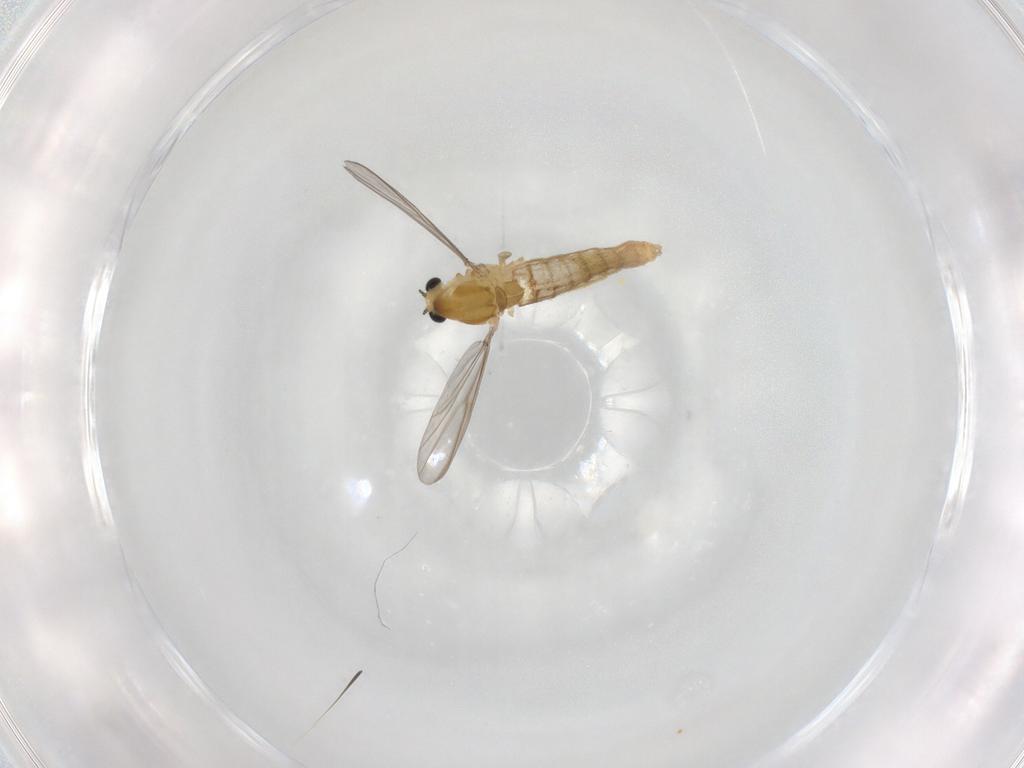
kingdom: Animalia
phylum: Arthropoda
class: Insecta
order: Diptera
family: Chironomidae
